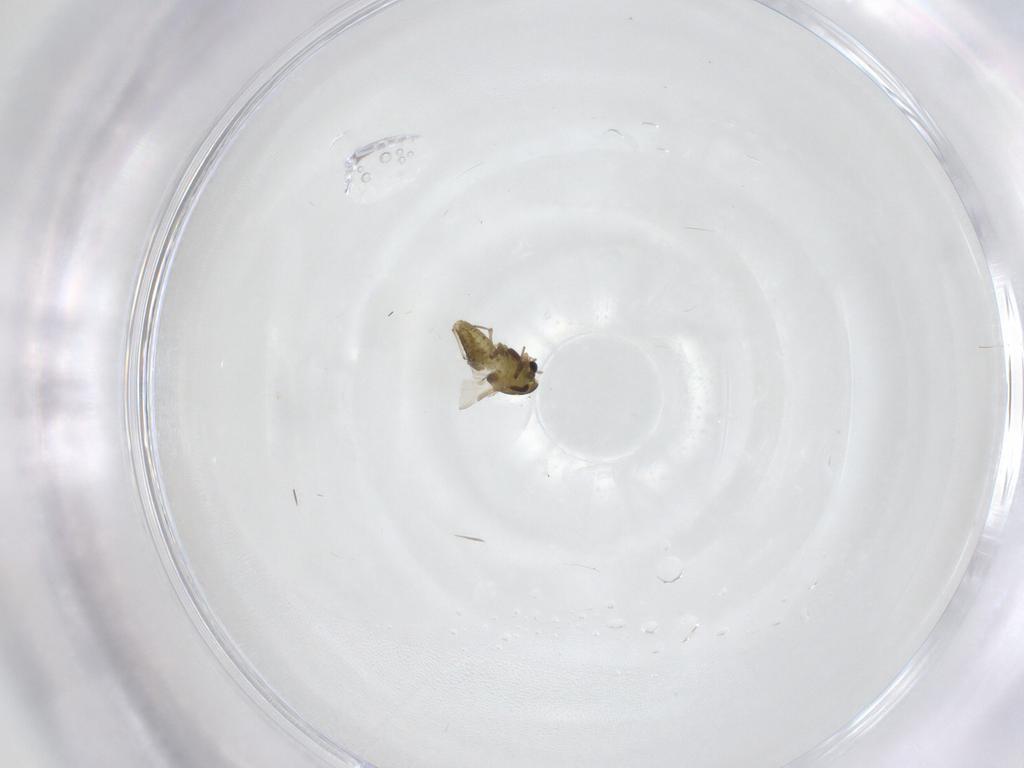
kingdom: Animalia
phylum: Arthropoda
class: Insecta
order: Diptera
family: Chironomidae
